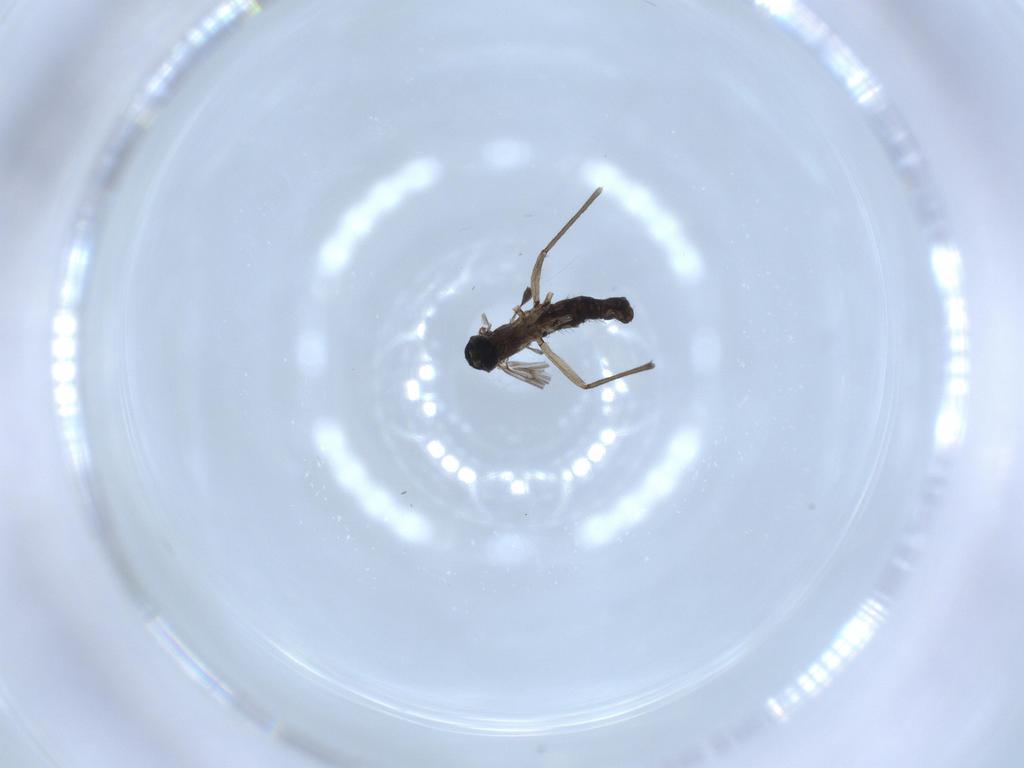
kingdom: Animalia
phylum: Arthropoda
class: Insecta
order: Diptera
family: Sciaridae
